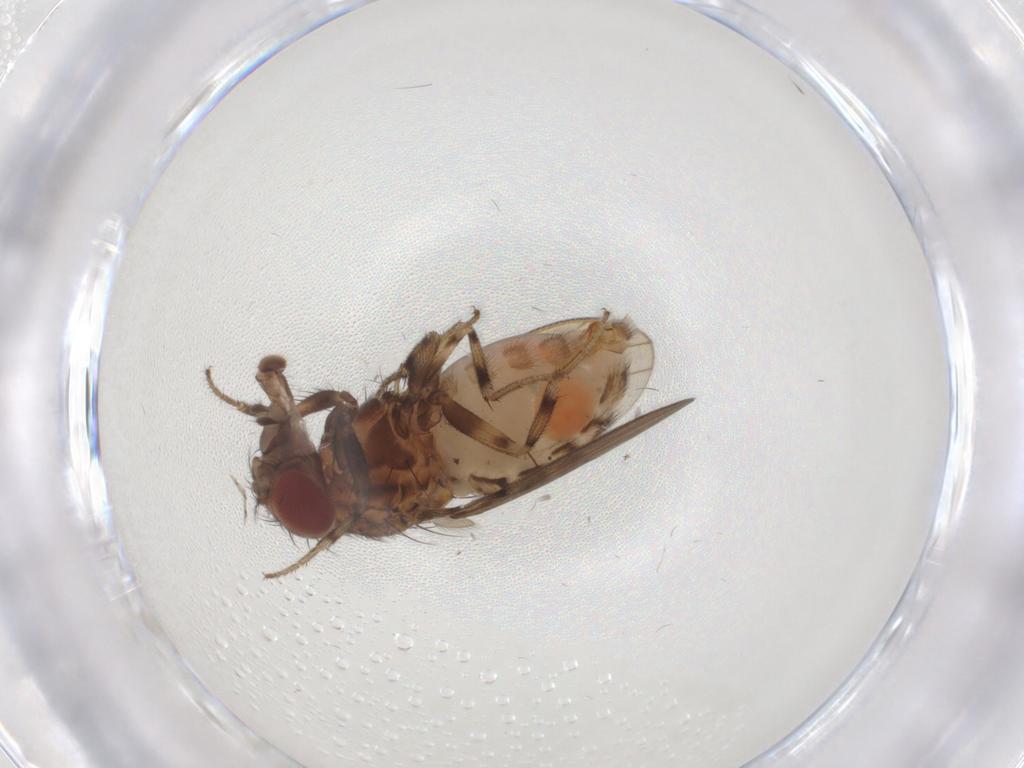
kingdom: Animalia
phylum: Arthropoda
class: Insecta
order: Diptera
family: Drosophilidae
